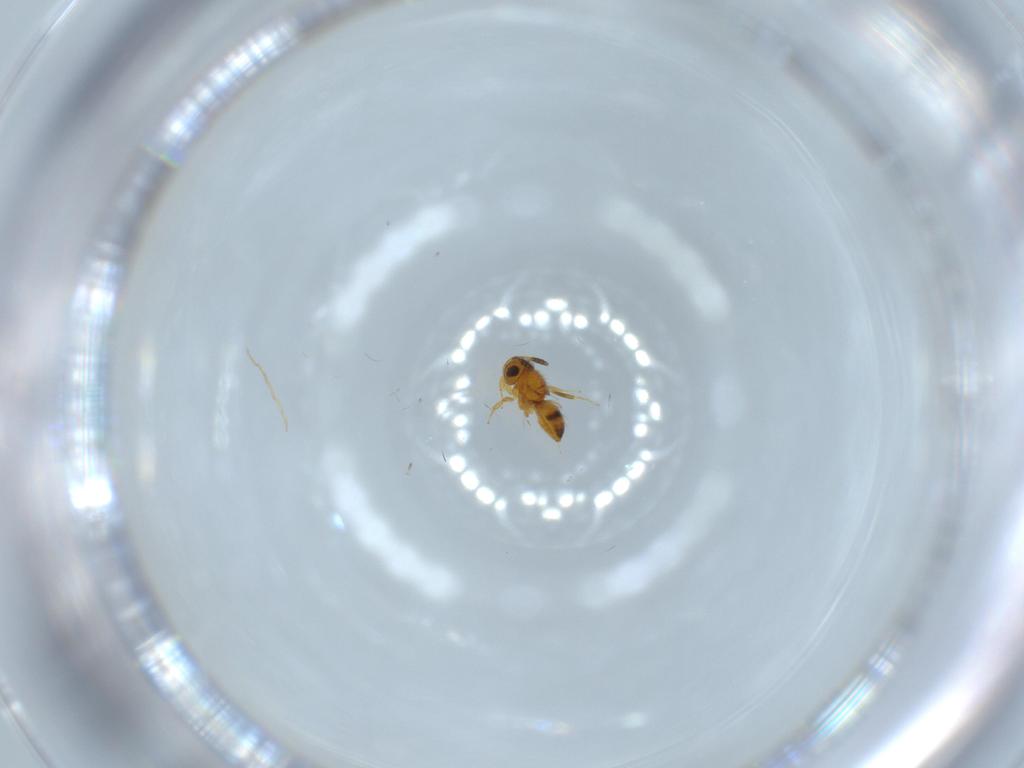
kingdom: Animalia
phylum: Arthropoda
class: Insecta
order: Hymenoptera
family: Scelionidae
